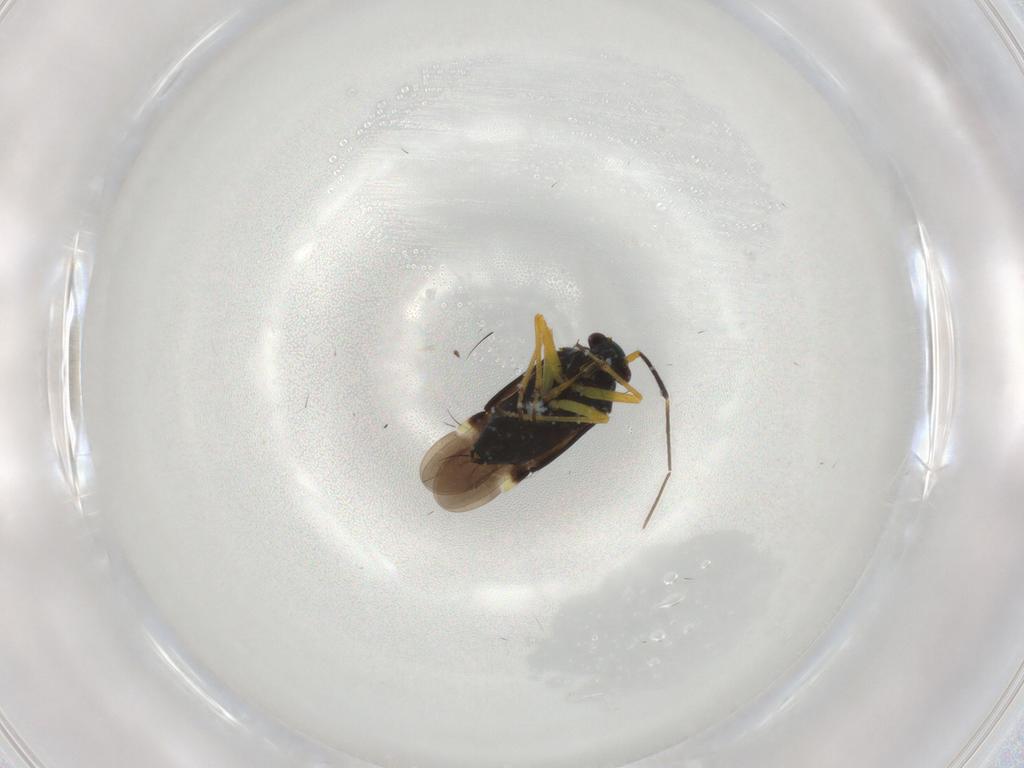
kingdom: Animalia
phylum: Arthropoda
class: Insecta
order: Hemiptera
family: Miridae
